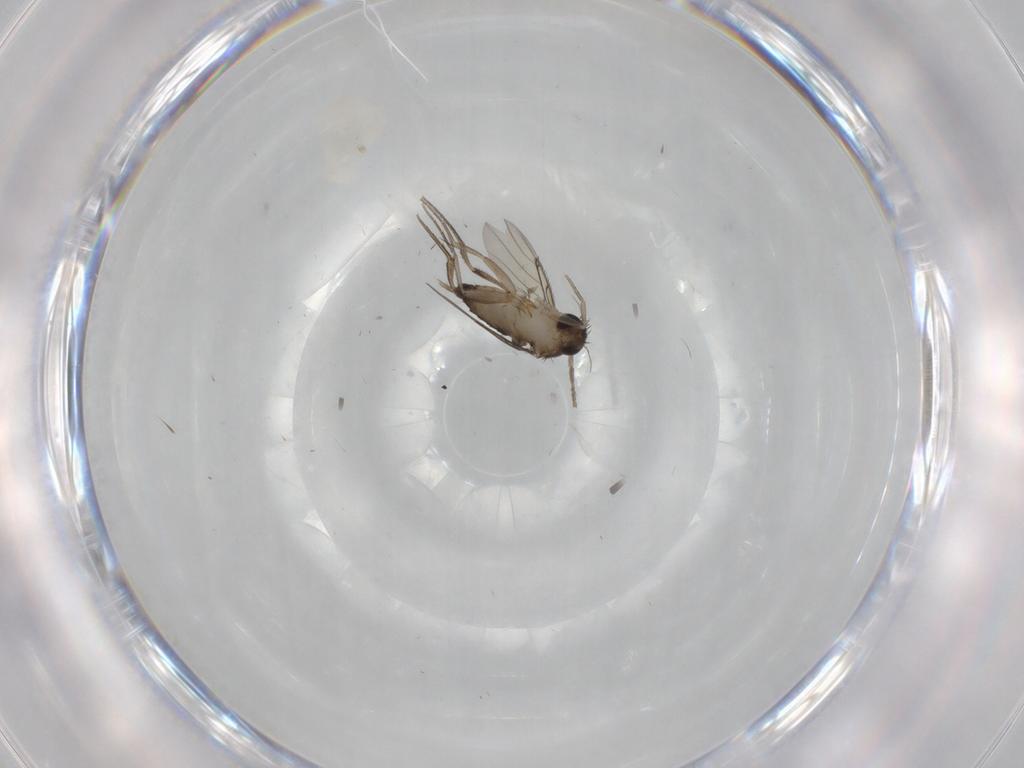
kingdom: Animalia
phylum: Arthropoda
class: Insecta
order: Diptera
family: Phoridae
